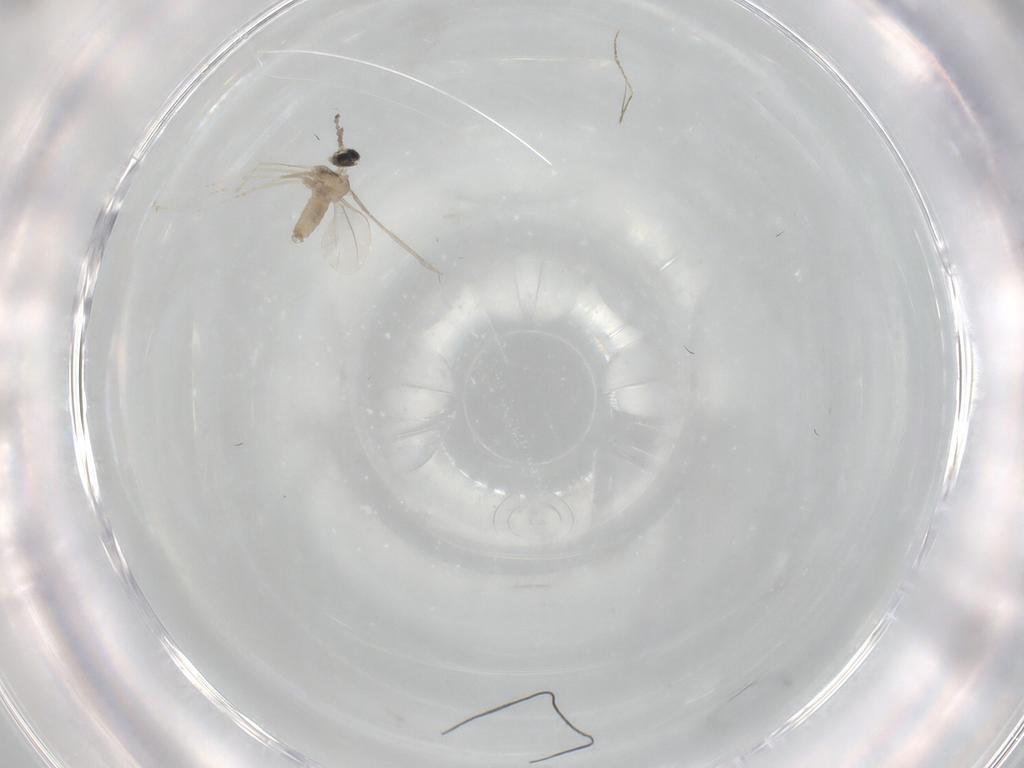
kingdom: Animalia
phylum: Arthropoda
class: Insecta
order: Diptera
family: Cecidomyiidae
